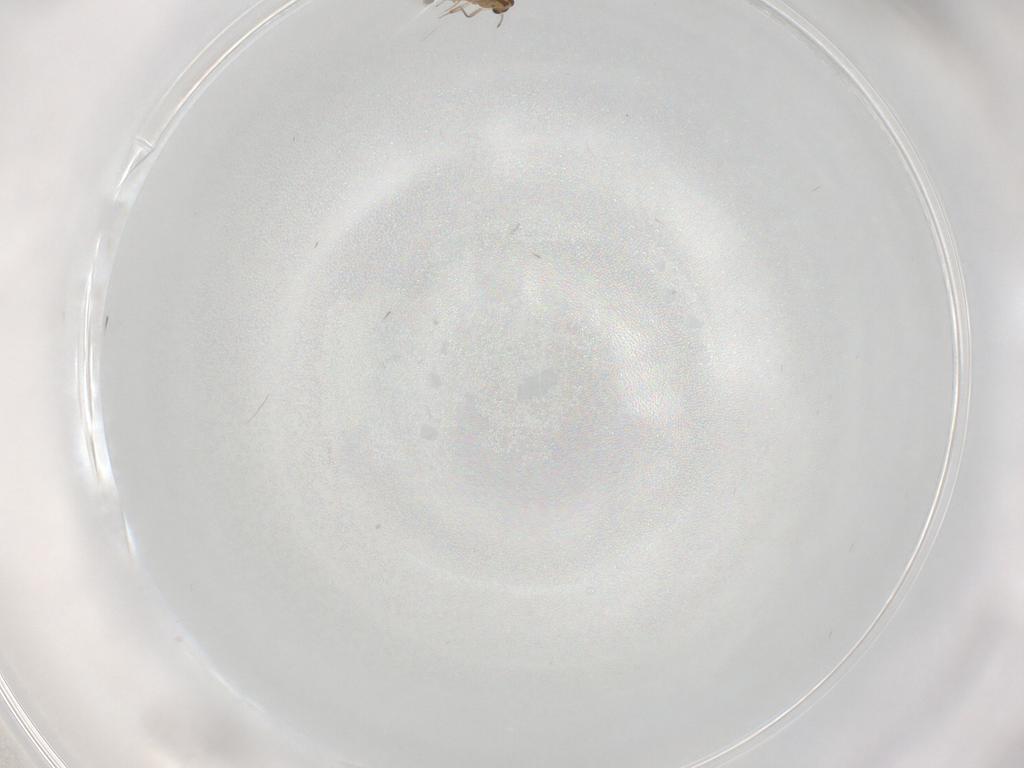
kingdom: Animalia
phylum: Arthropoda
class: Insecta
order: Diptera
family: Chironomidae
